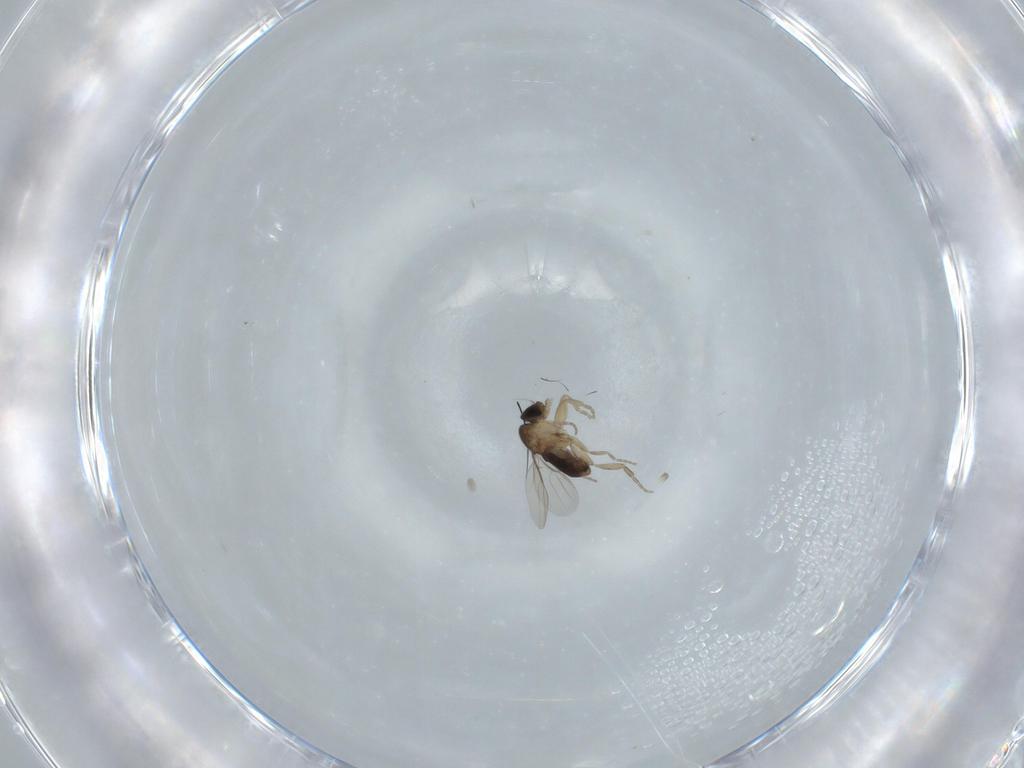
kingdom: Animalia
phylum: Arthropoda
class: Insecta
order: Diptera
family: Phoridae
